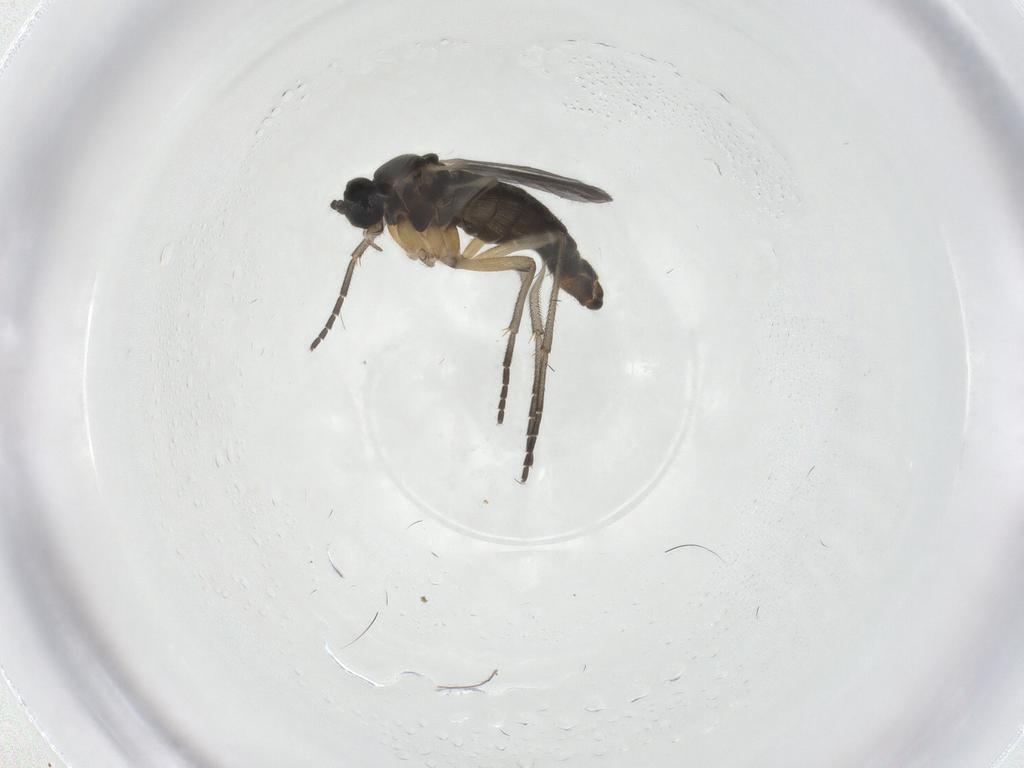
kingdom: Animalia
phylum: Arthropoda
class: Insecta
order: Diptera
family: Sciaridae
